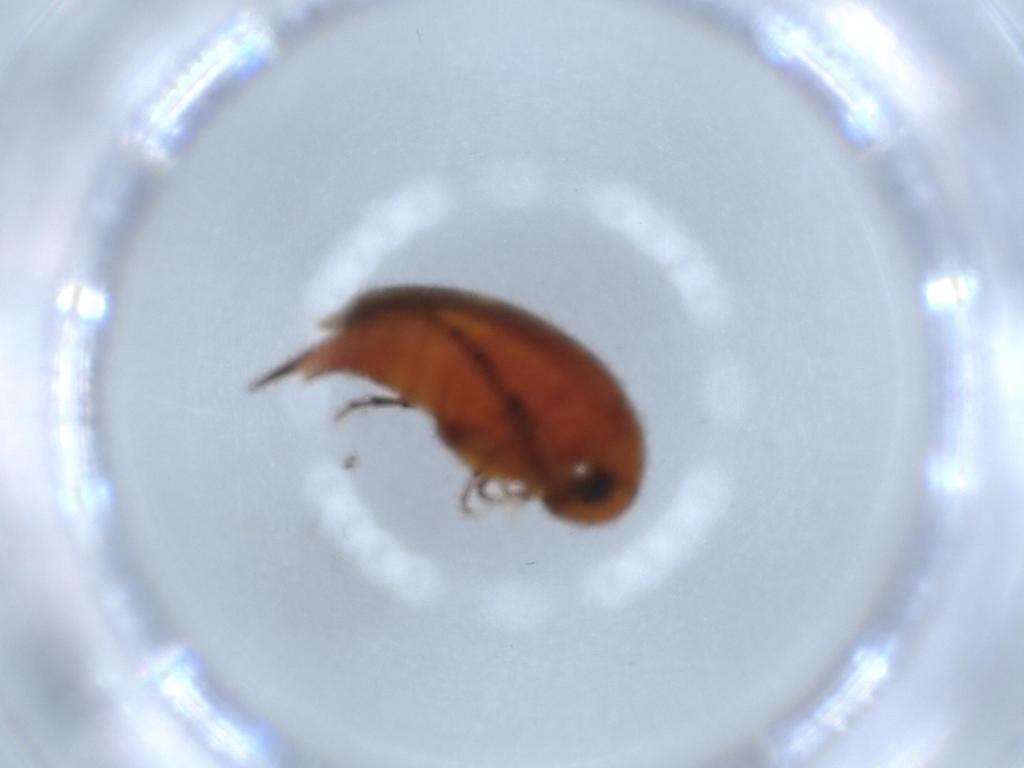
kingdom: Animalia
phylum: Arthropoda
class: Insecta
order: Coleoptera
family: Mordellidae
